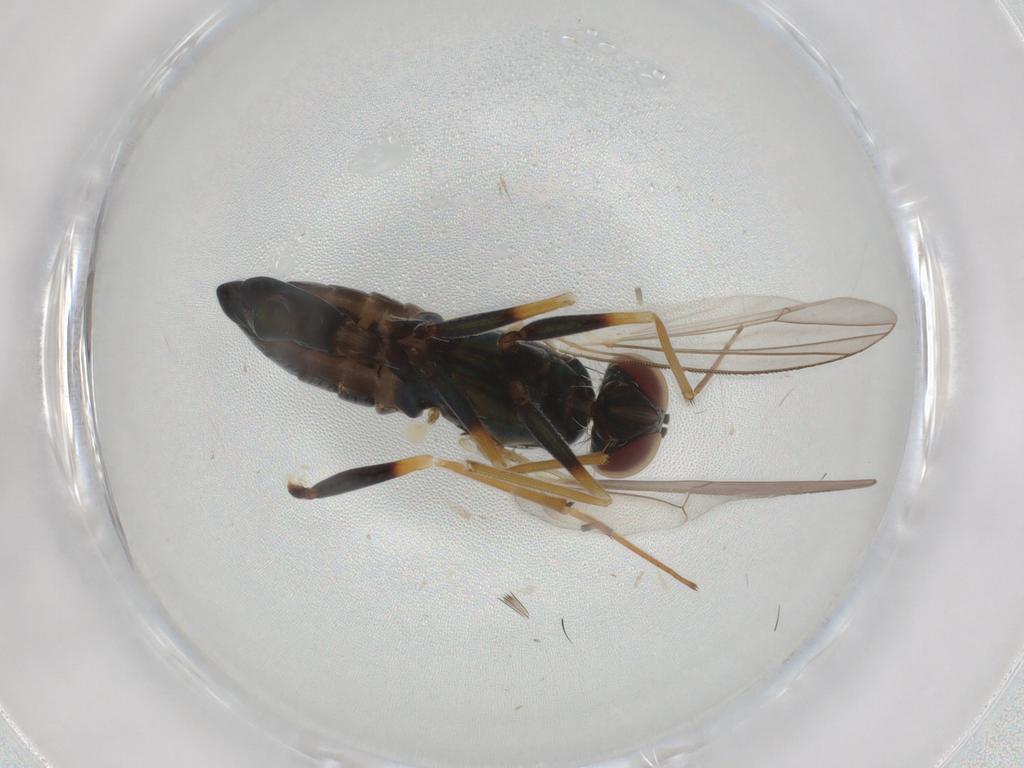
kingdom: Animalia
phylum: Arthropoda
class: Insecta
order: Diptera
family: Dolichopodidae
